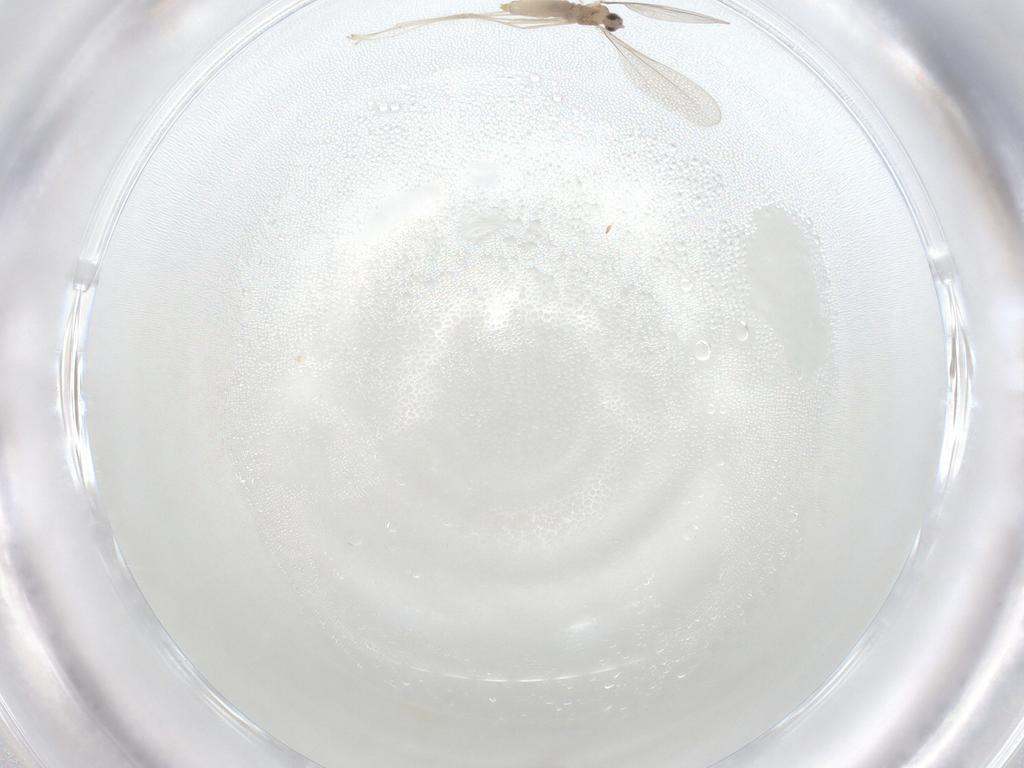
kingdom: Animalia
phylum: Arthropoda
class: Insecta
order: Diptera
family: Cecidomyiidae
